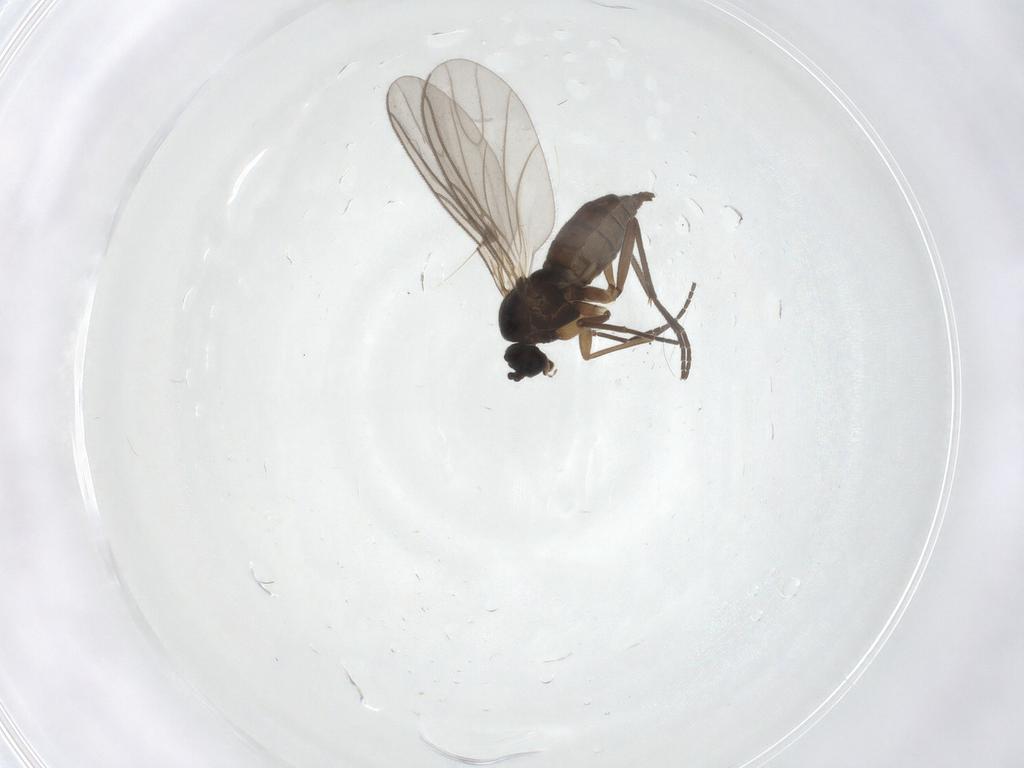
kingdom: Animalia
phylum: Arthropoda
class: Insecta
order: Diptera
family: Sciaridae
